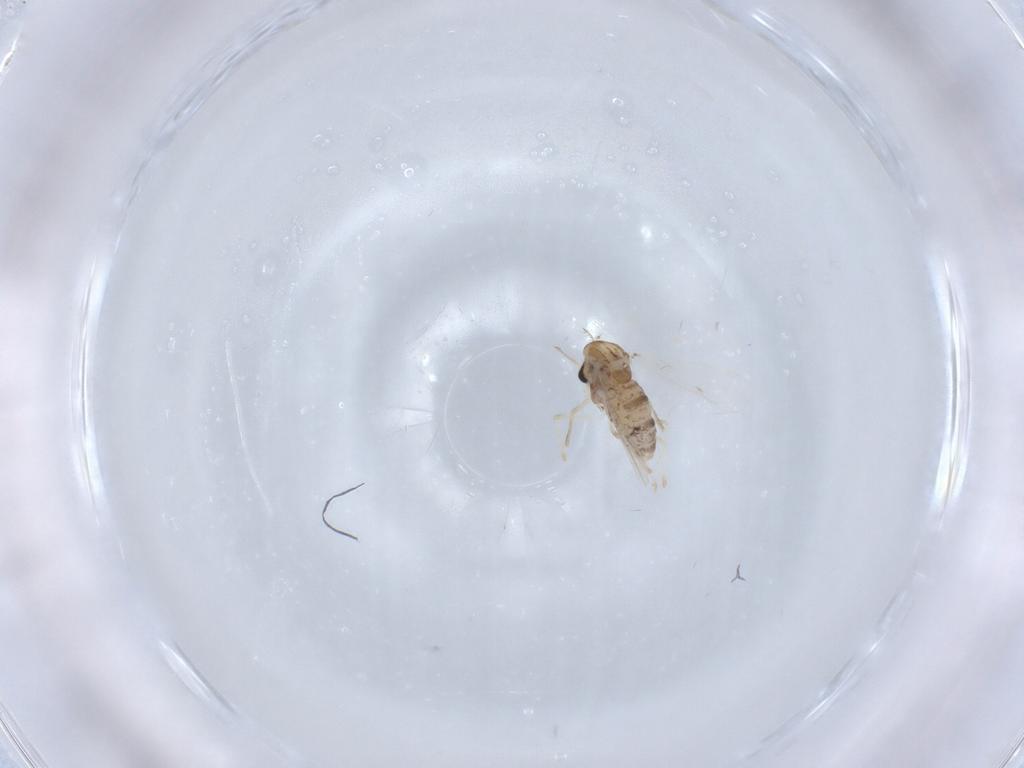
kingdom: Animalia
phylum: Arthropoda
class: Insecta
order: Diptera
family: Chironomidae
